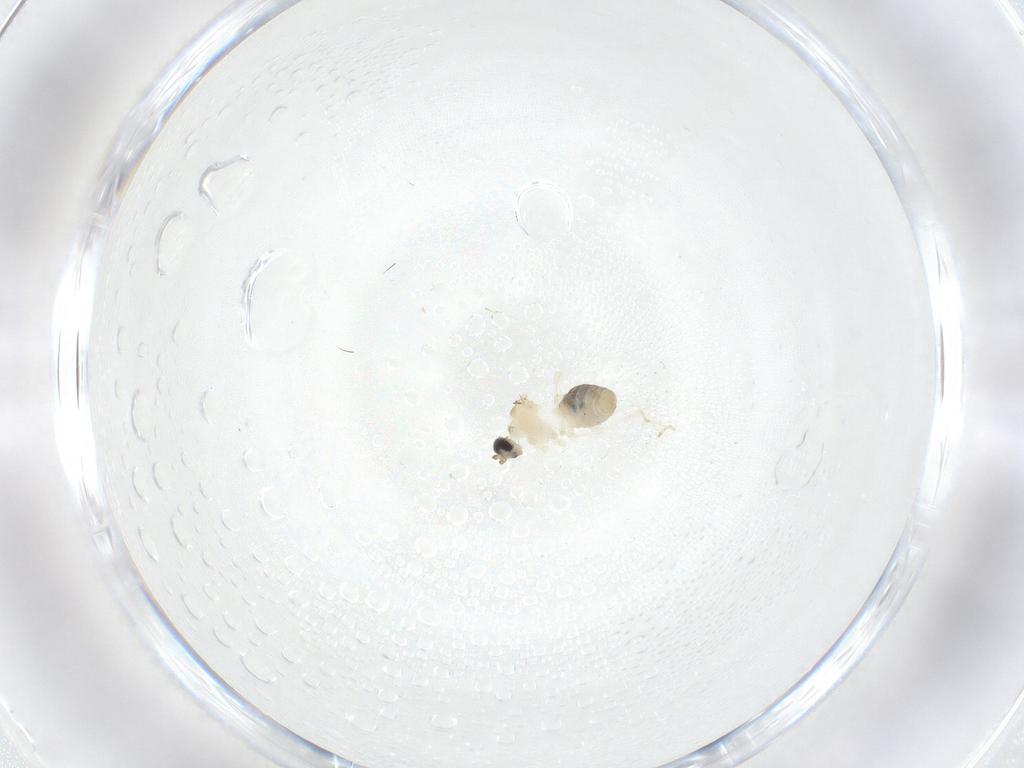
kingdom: Animalia
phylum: Arthropoda
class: Insecta
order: Diptera
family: Cecidomyiidae
